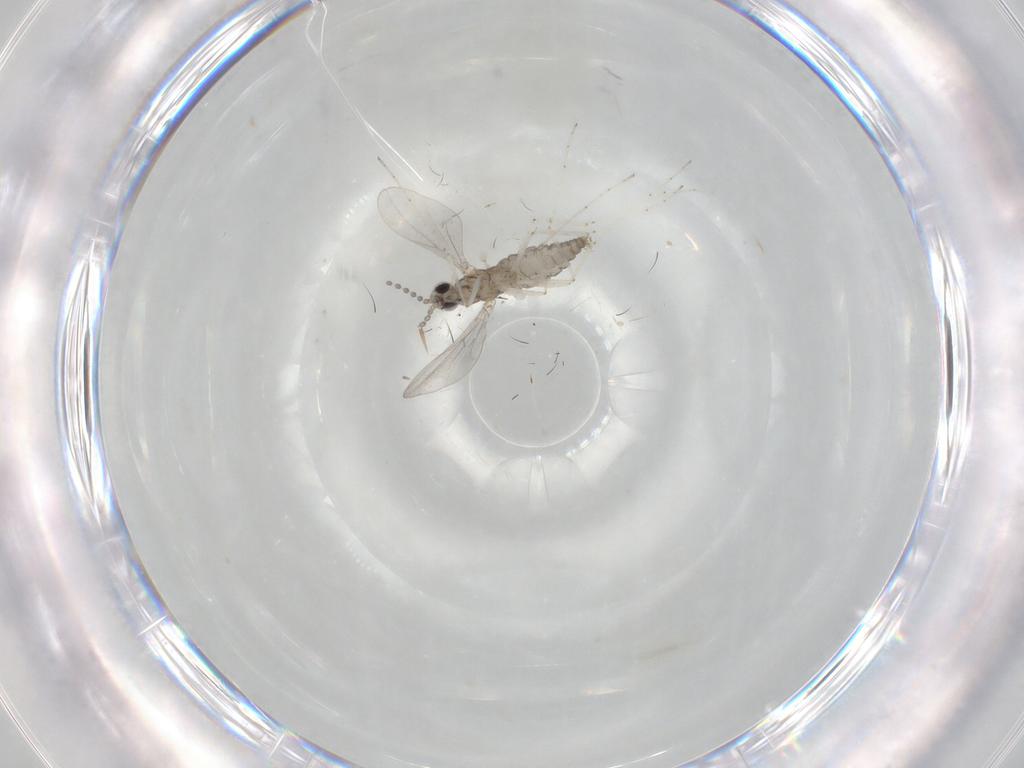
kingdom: Animalia
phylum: Arthropoda
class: Insecta
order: Diptera
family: Cecidomyiidae
